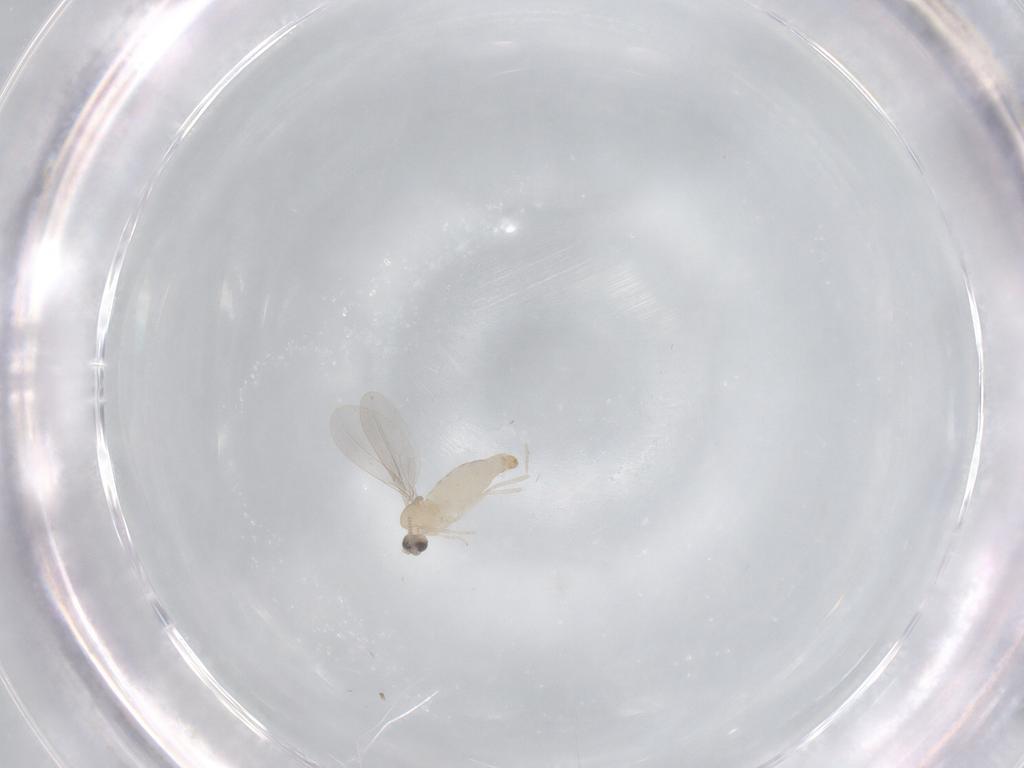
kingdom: Animalia
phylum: Arthropoda
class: Insecta
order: Diptera
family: Cecidomyiidae
